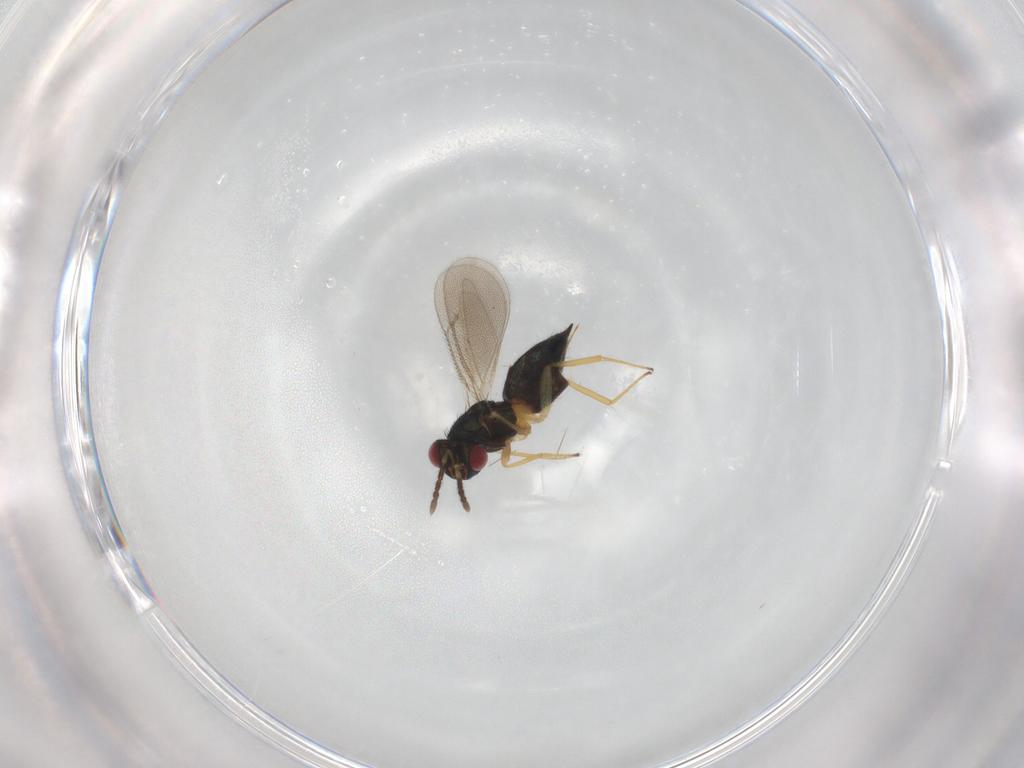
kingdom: Animalia
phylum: Arthropoda
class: Insecta
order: Hymenoptera
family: Eulophidae
